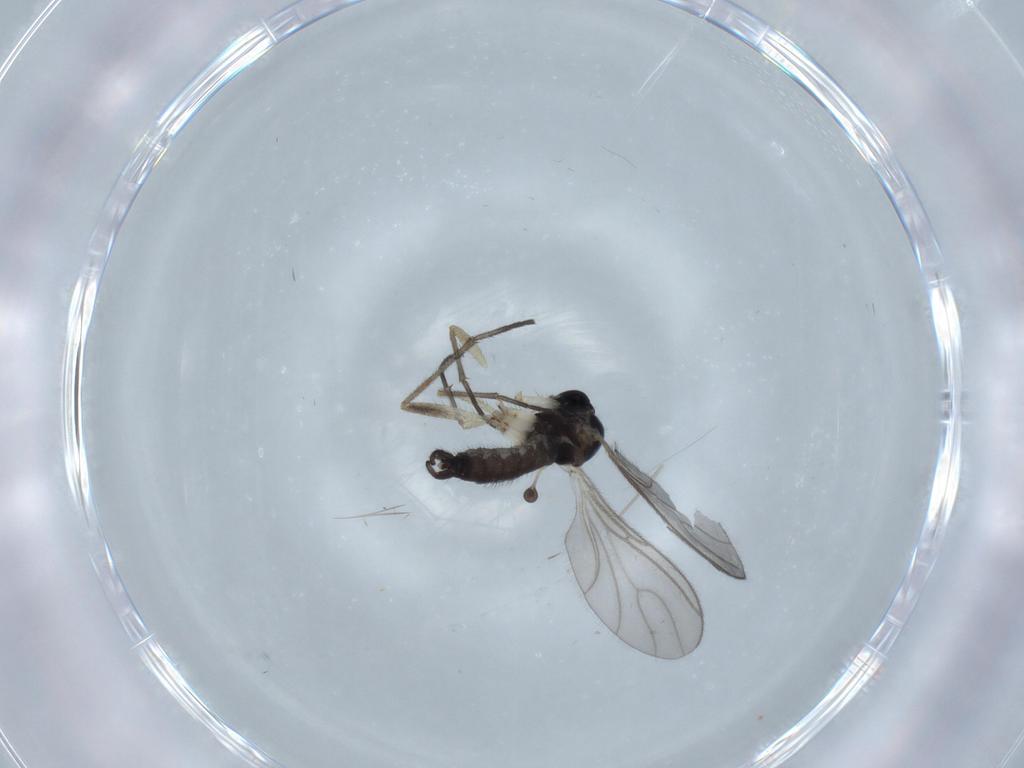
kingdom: Animalia
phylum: Arthropoda
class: Insecta
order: Diptera
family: Sciaridae
